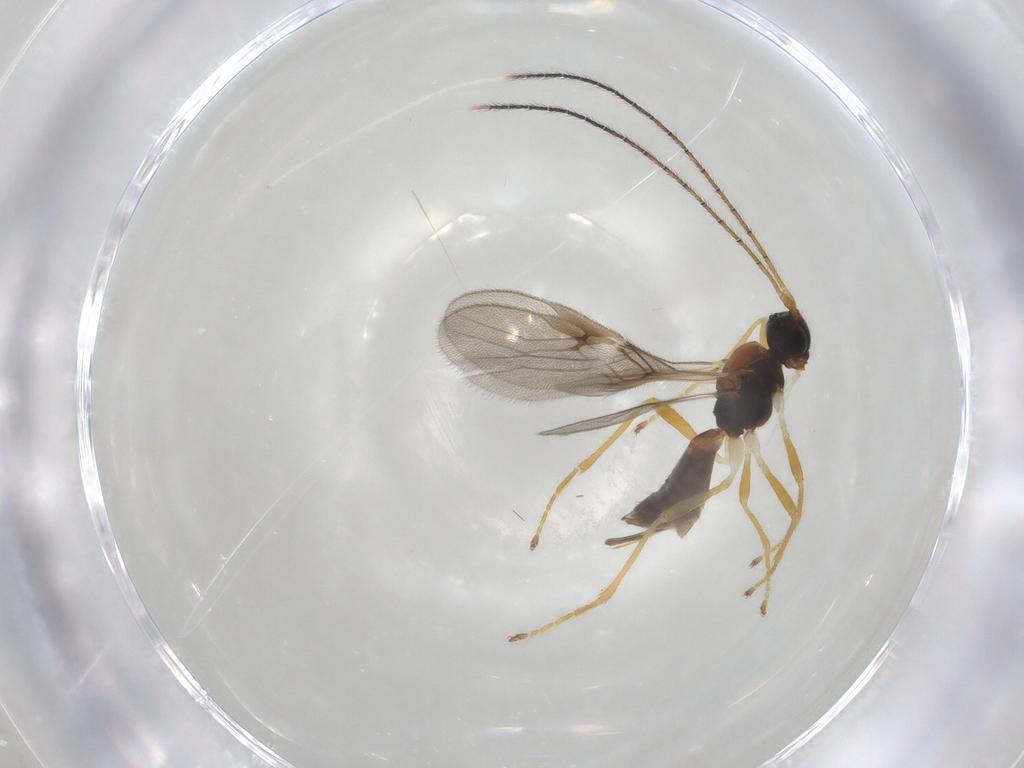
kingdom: Animalia
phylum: Arthropoda
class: Insecta
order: Hymenoptera
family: Braconidae
